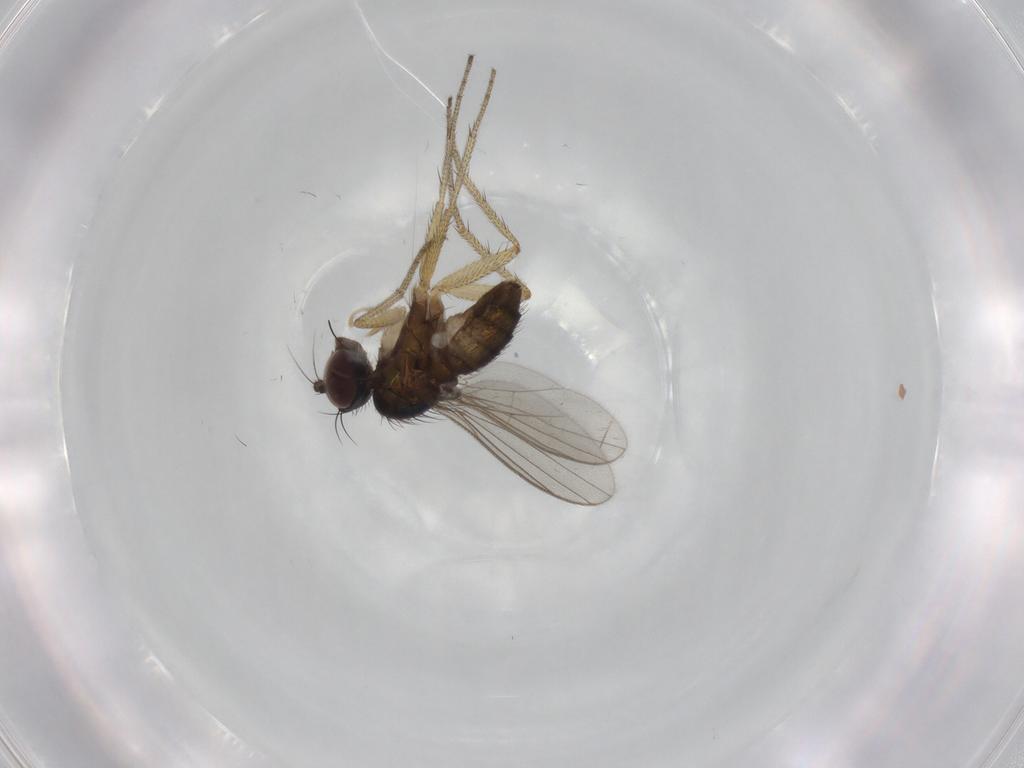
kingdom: Animalia
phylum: Arthropoda
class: Insecta
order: Diptera
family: Dolichopodidae
